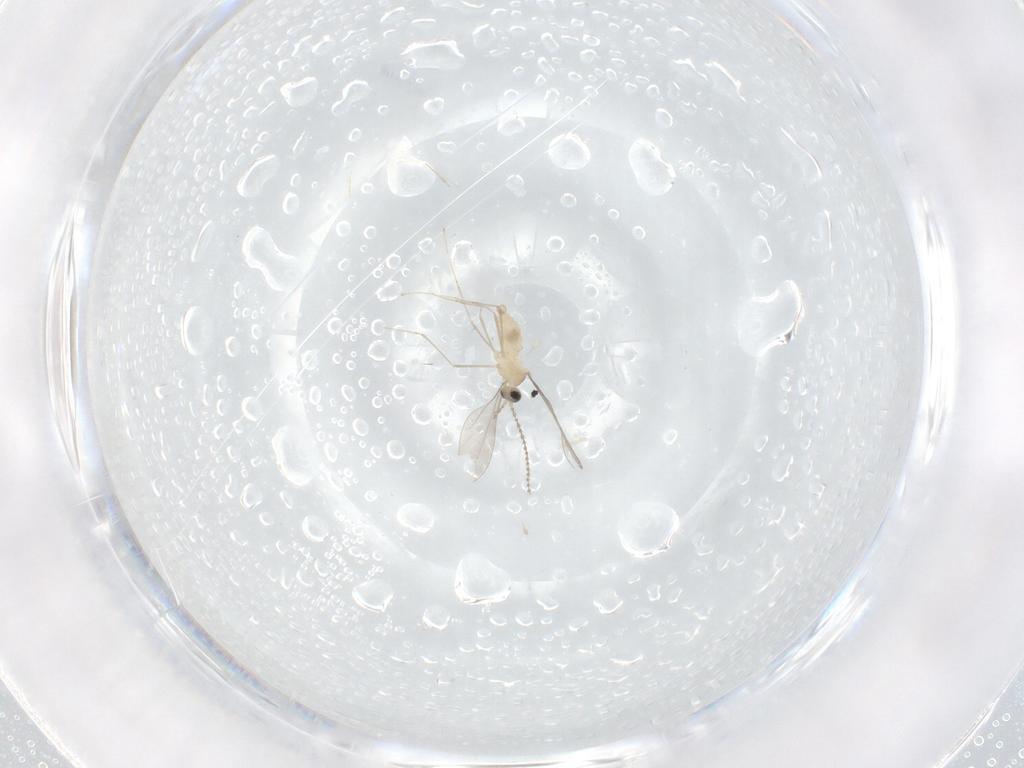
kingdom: Animalia
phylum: Arthropoda
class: Insecta
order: Diptera
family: Cecidomyiidae
